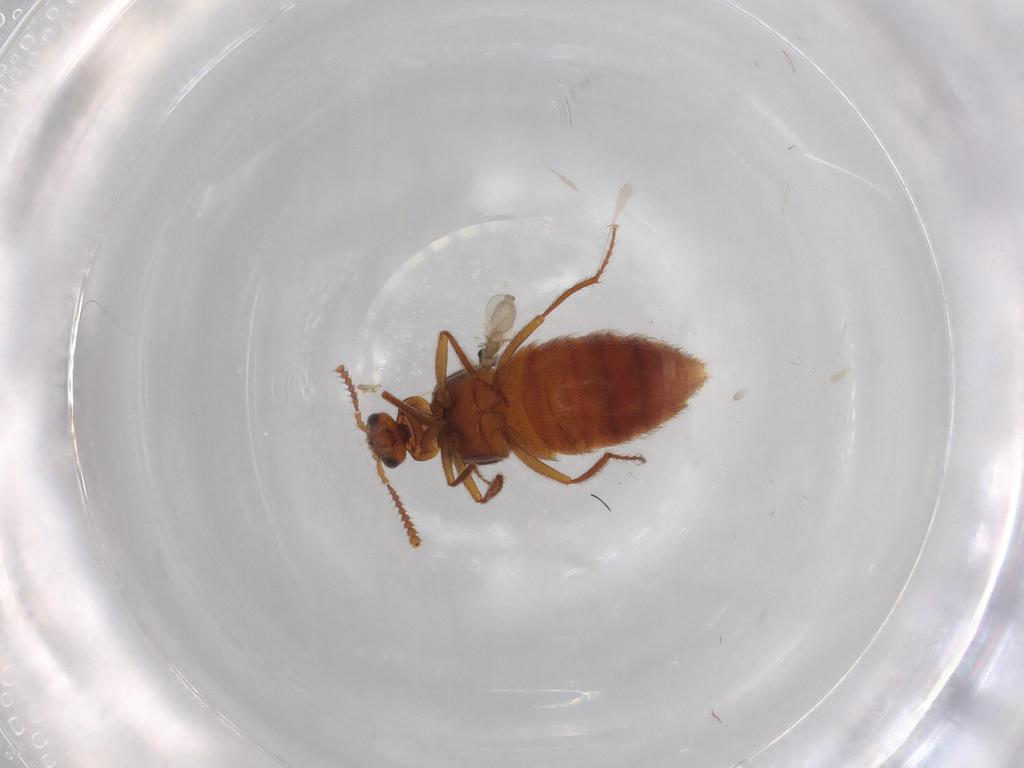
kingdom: Animalia
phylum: Arthropoda
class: Insecta
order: Coleoptera
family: Staphylinidae
